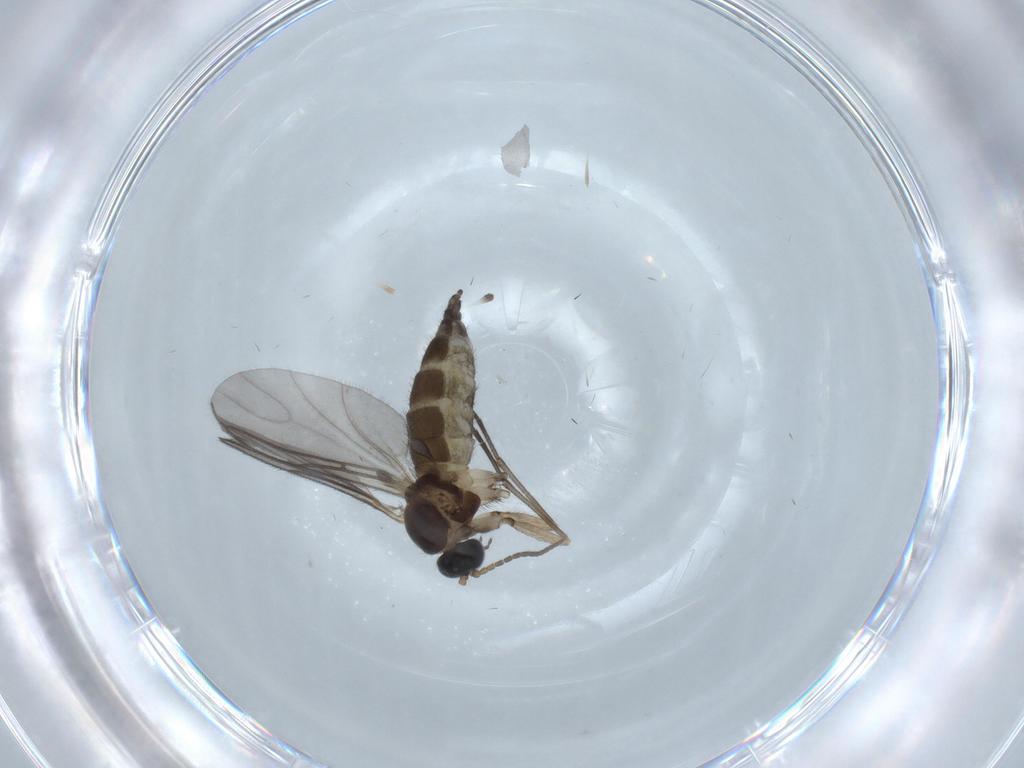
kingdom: Animalia
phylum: Arthropoda
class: Insecta
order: Diptera
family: Sciaridae
